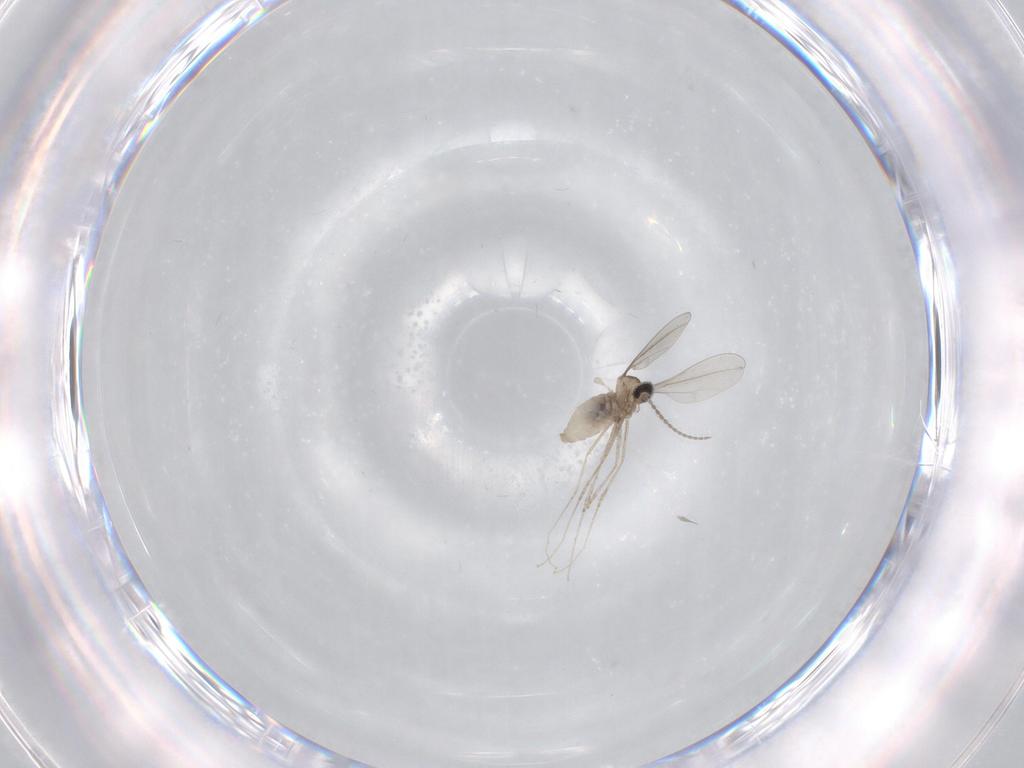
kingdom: Animalia
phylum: Arthropoda
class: Insecta
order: Diptera
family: Cecidomyiidae
